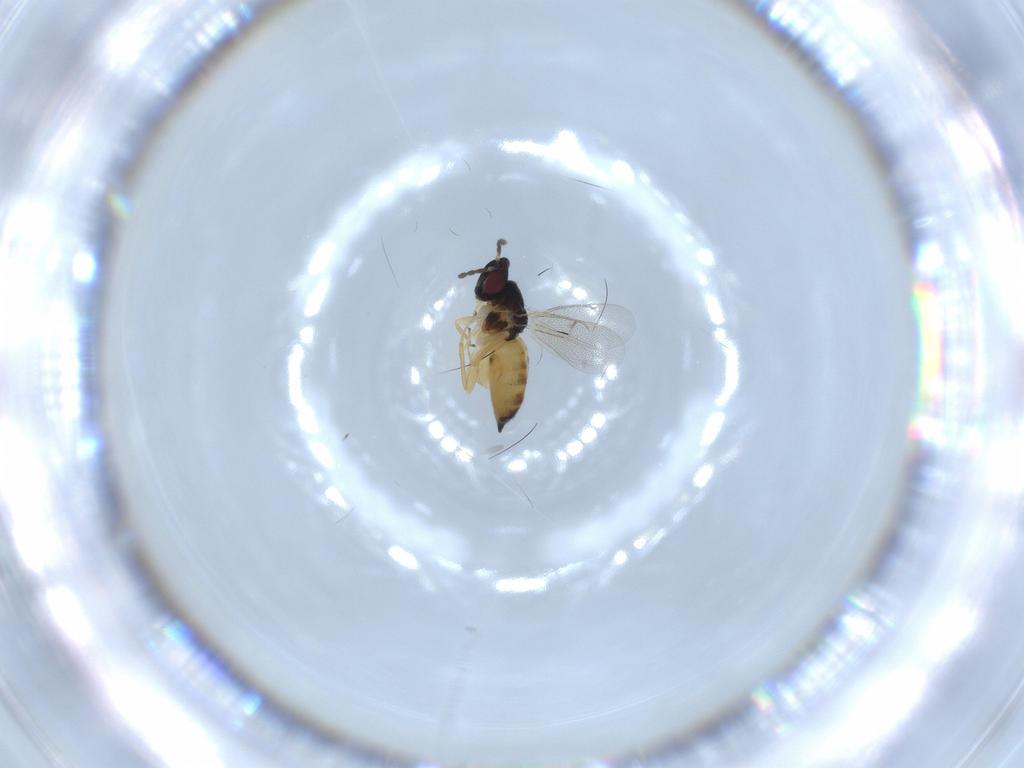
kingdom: Animalia
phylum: Arthropoda
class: Insecta
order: Hymenoptera
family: Eulophidae
